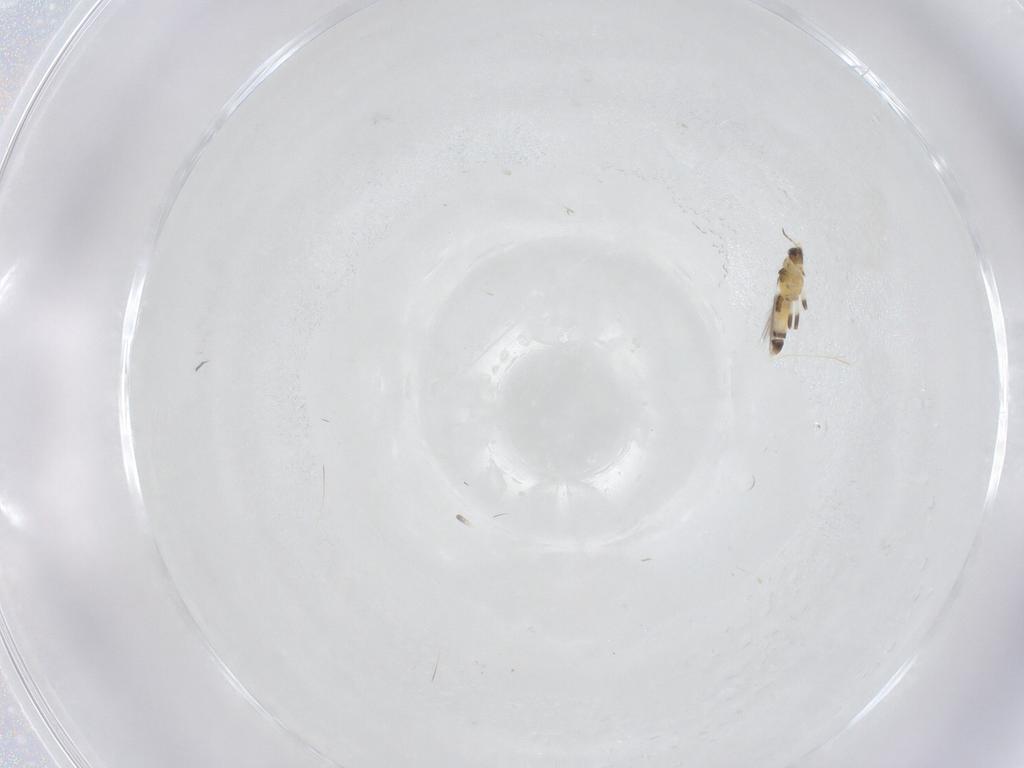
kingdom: Animalia
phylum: Arthropoda
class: Insecta
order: Thysanoptera
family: Thripidae
